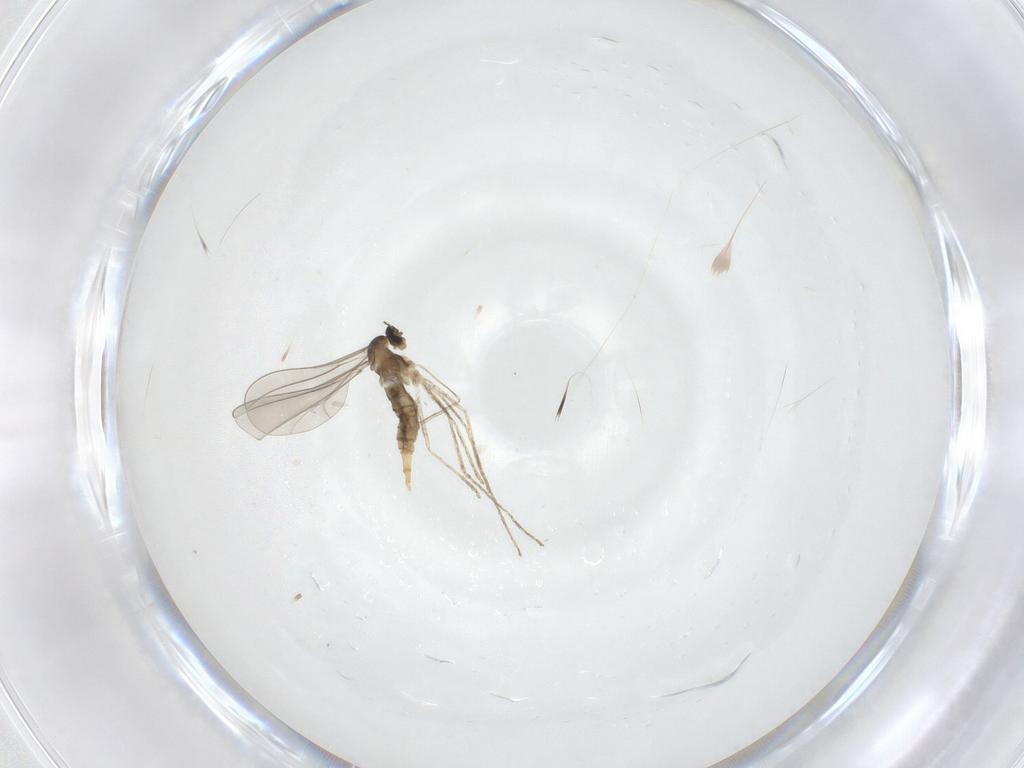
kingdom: Animalia
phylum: Arthropoda
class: Insecta
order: Diptera
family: Cecidomyiidae
